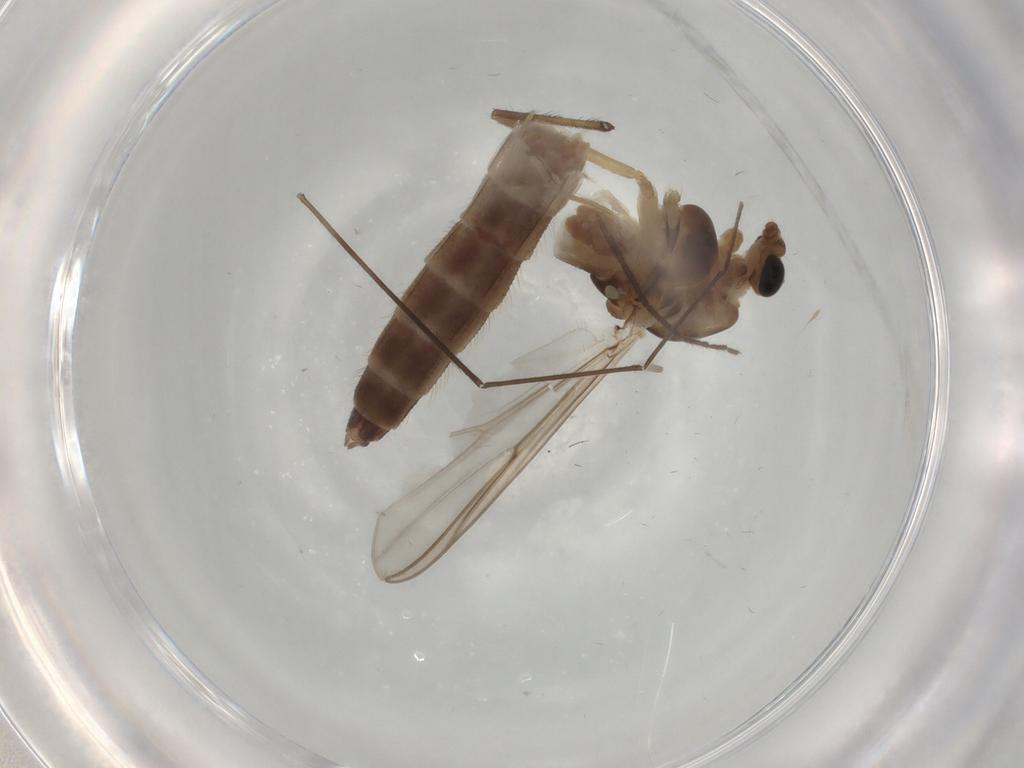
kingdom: Animalia
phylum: Arthropoda
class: Insecta
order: Diptera
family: Chironomidae
